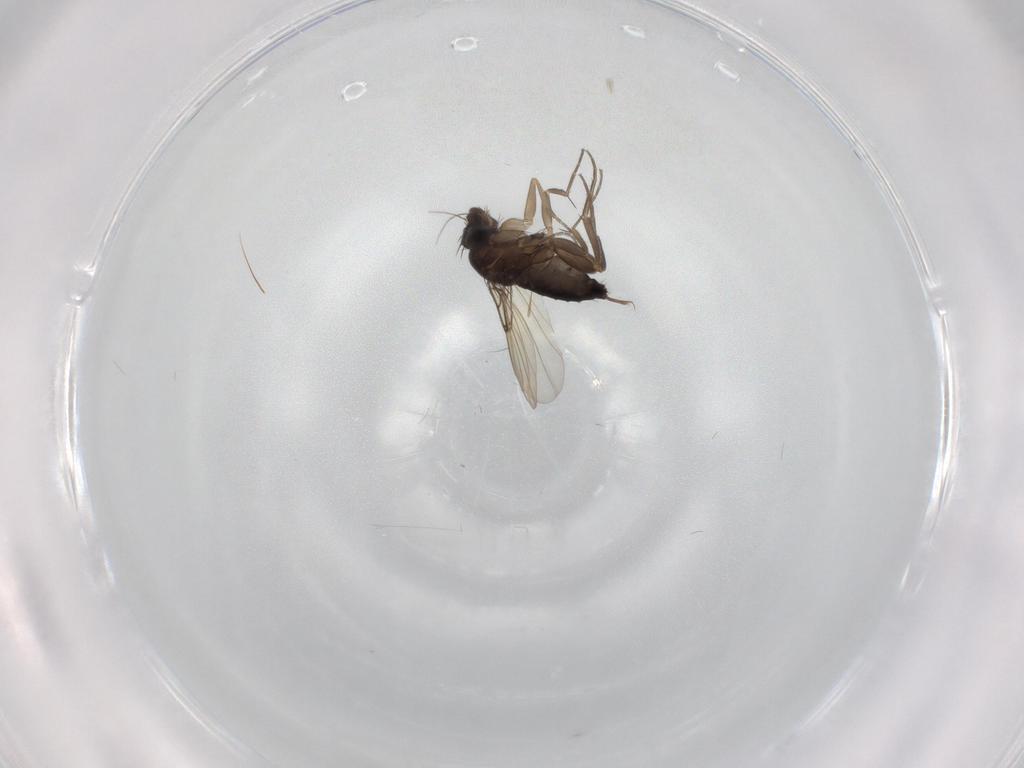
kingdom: Animalia
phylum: Arthropoda
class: Insecta
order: Diptera
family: Phoridae
